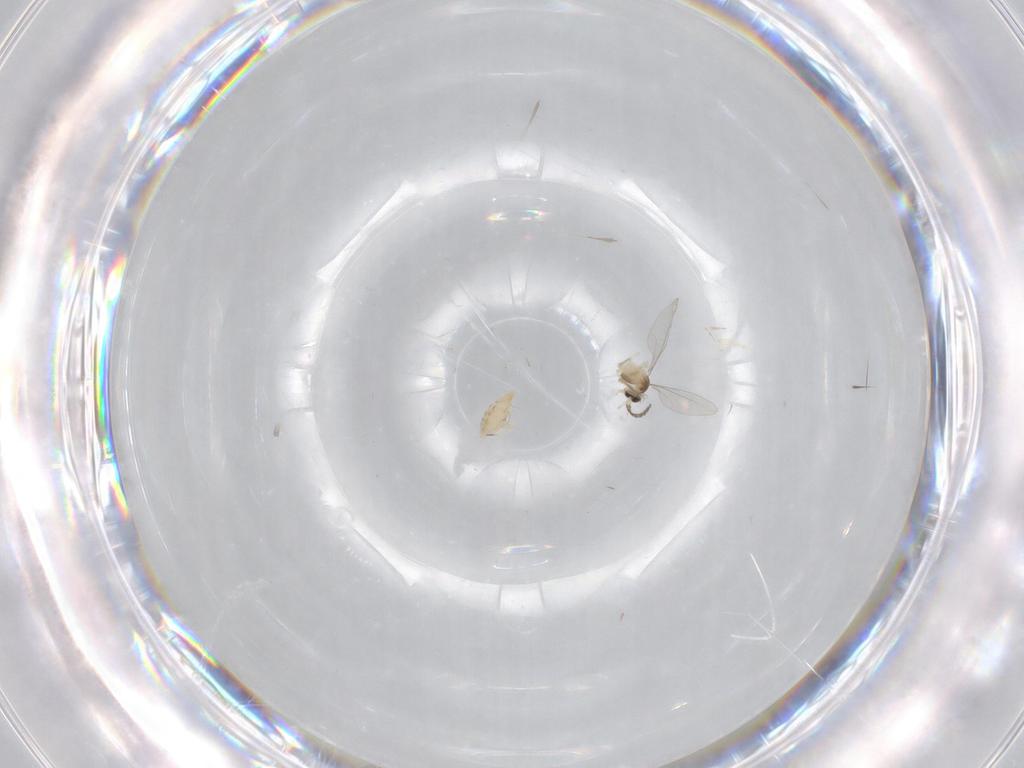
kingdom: Animalia
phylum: Arthropoda
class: Insecta
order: Diptera
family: Cecidomyiidae
